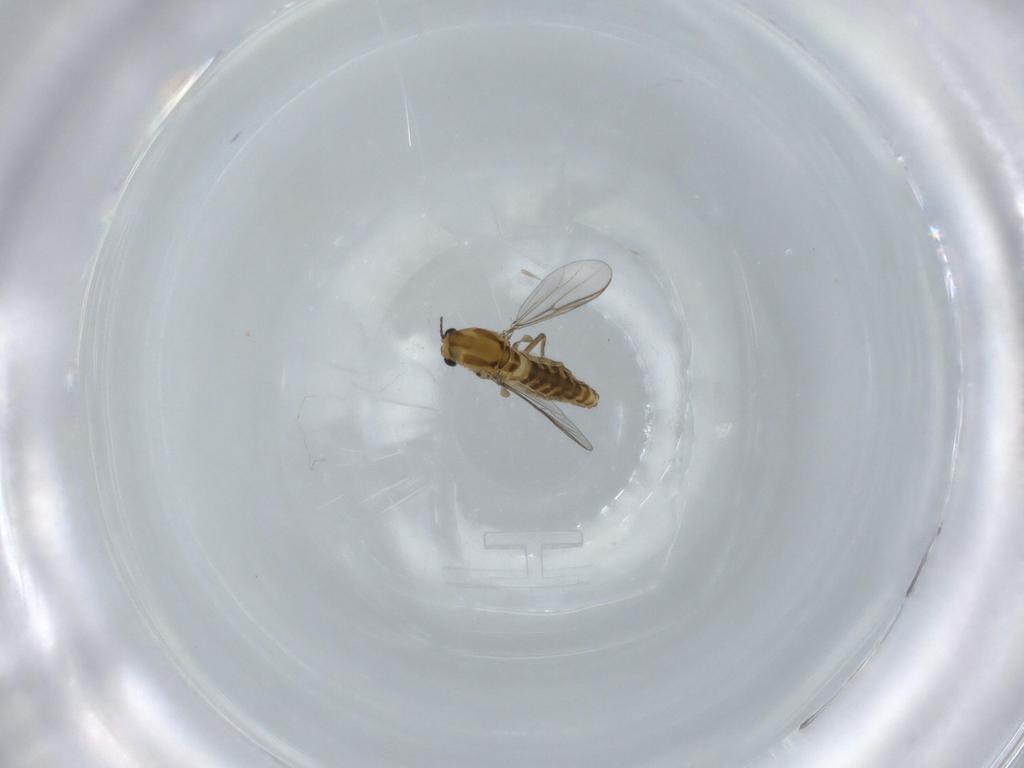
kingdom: Animalia
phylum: Arthropoda
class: Insecta
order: Diptera
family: Chironomidae
